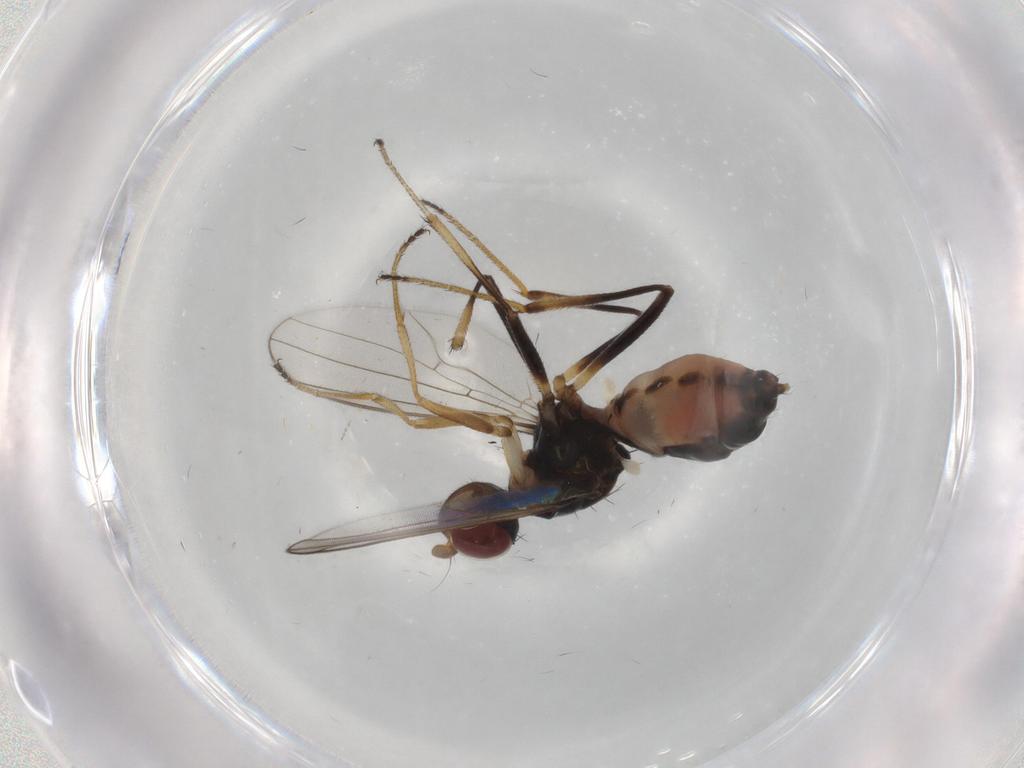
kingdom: Animalia
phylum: Arthropoda
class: Insecta
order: Diptera
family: Sepsidae
